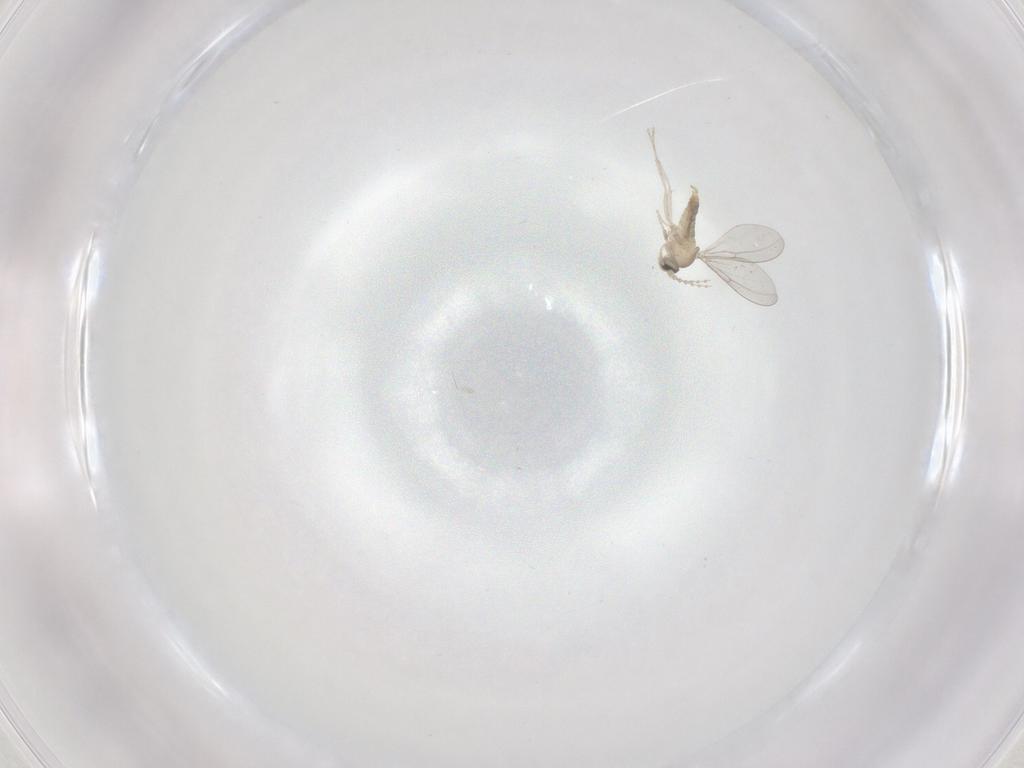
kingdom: Animalia
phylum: Arthropoda
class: Insecta
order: Diptera
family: Cecidomyiidae
